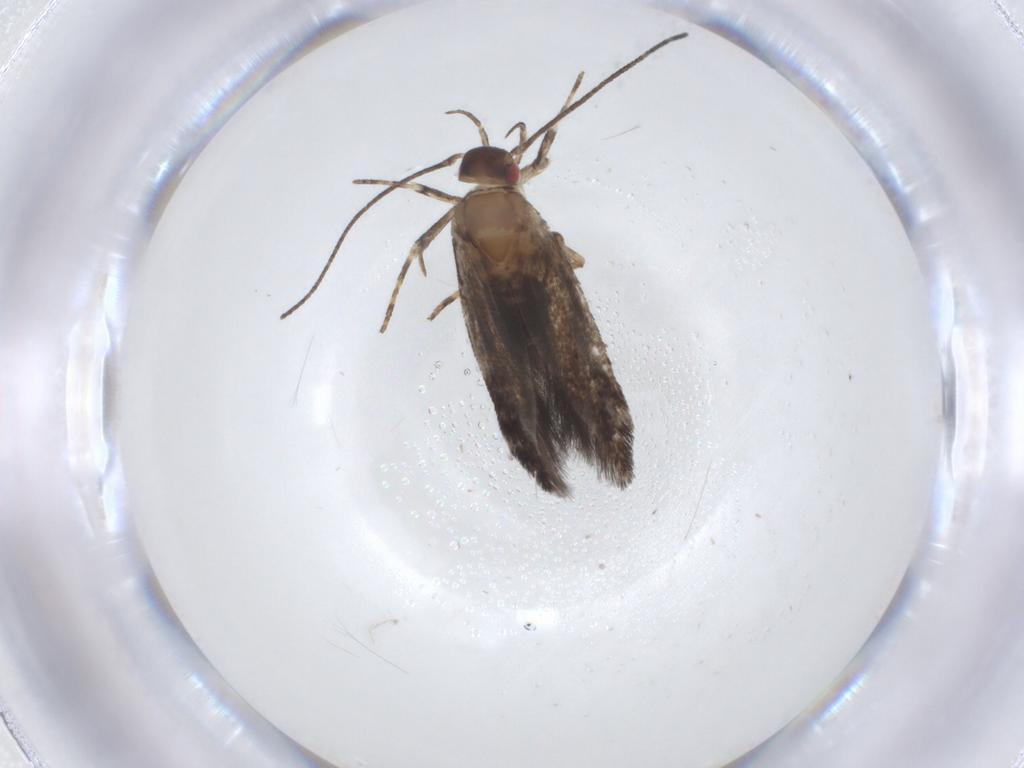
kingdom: Animalia
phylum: Arthropoda
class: Insecta
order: Lepidoptera
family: Cosmopterigidae
